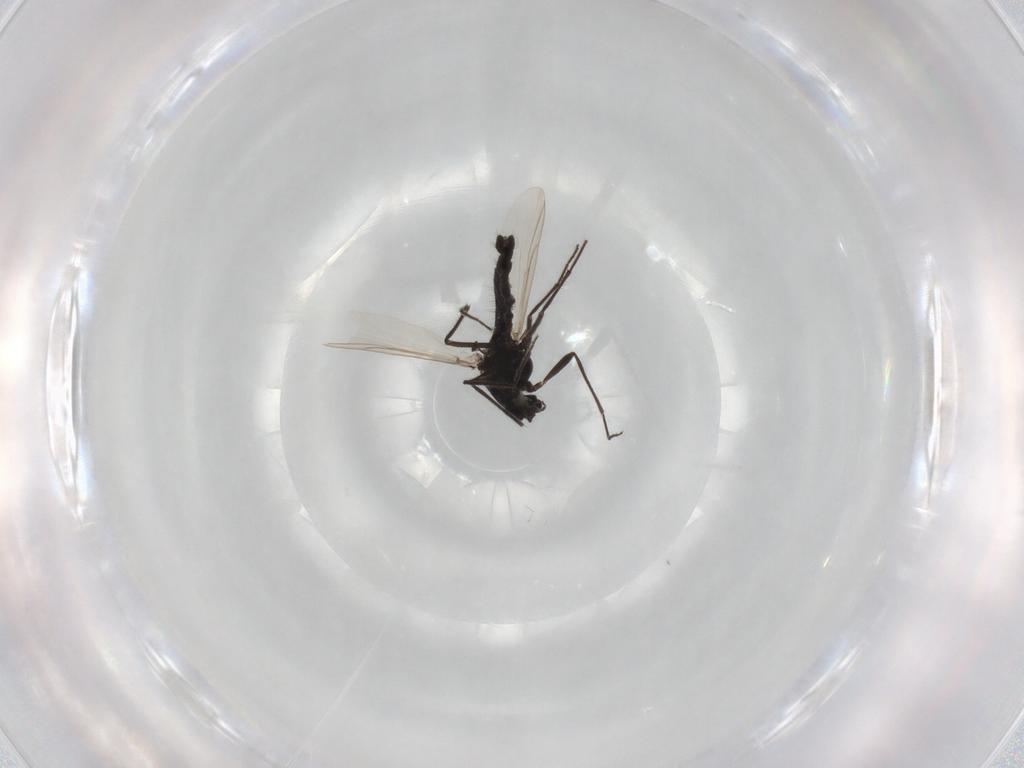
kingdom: Animalia
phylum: Arthropoda
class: Insecta
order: Diptera
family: Chironomidae
